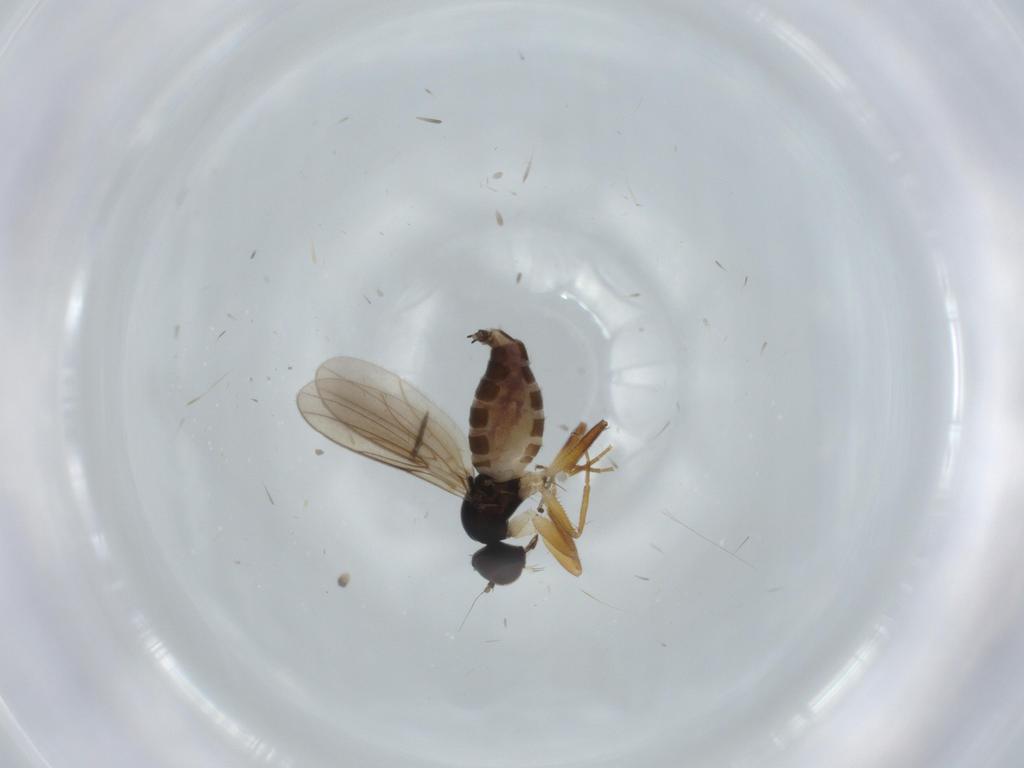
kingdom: Animalia
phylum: Arthropoda
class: Insecta
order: Diptera
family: Hybotidae
